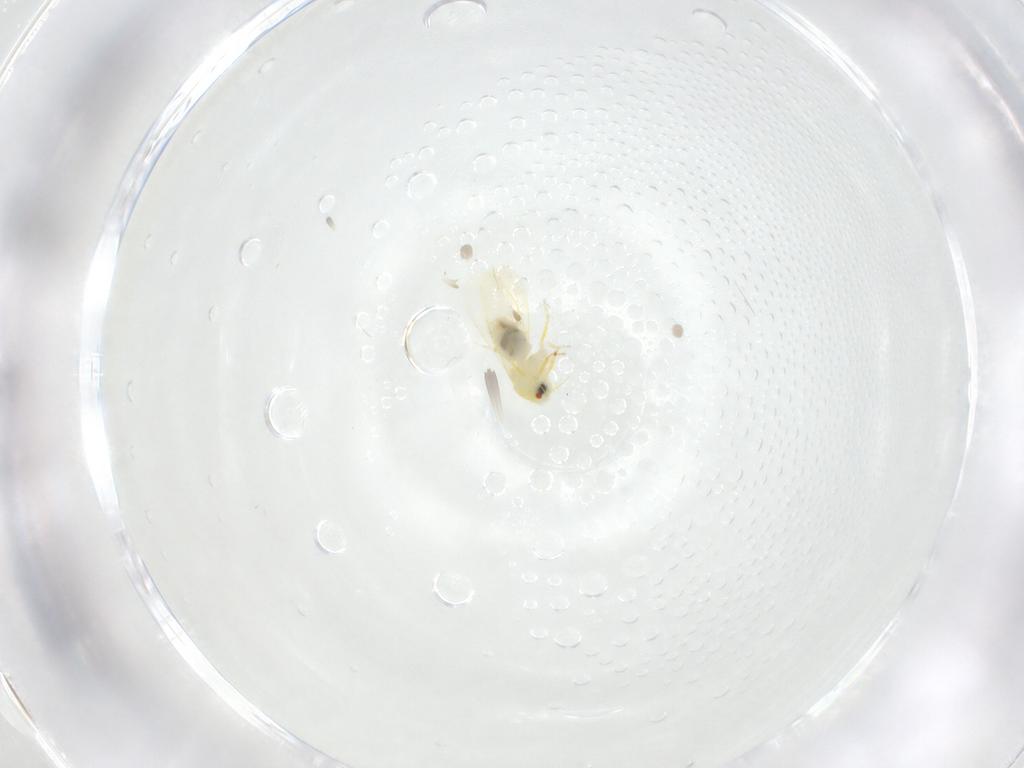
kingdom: Animalia
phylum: Arthropoda
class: Insecta
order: Hemiptera
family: Aleyrodidae
